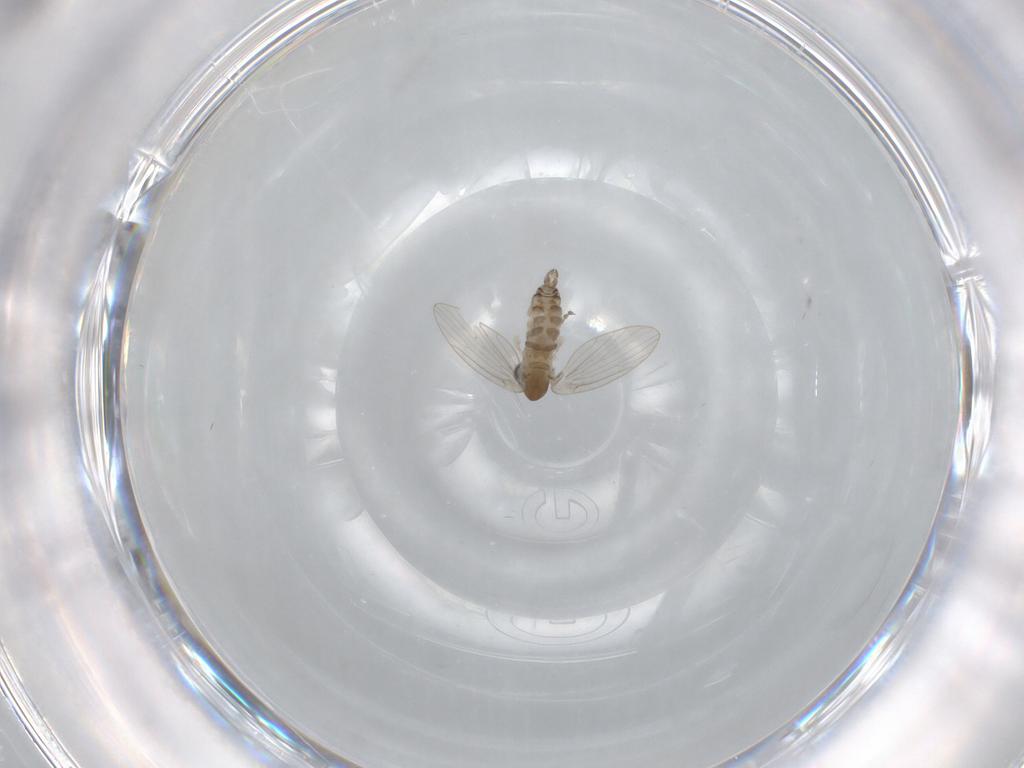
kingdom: Animalia
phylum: Arthropoda
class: Insecta
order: Diptera
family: Psychodidae
